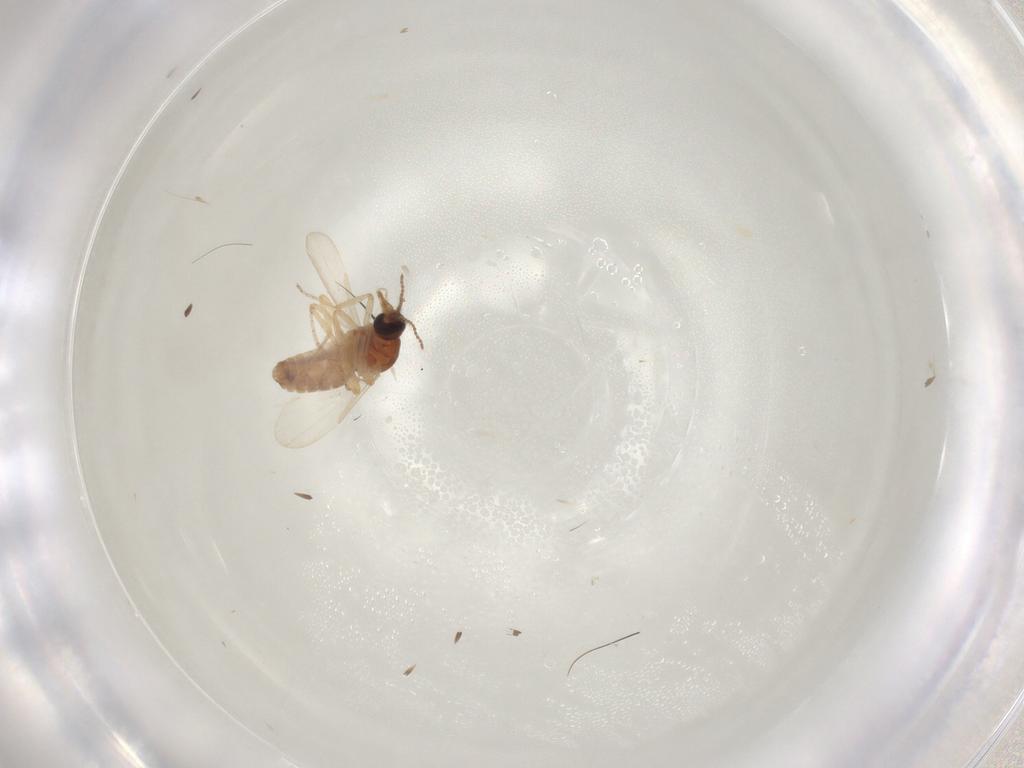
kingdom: Animalia
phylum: Arthropoda
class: Insecta
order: Diptera
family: Ceratopogonidae
